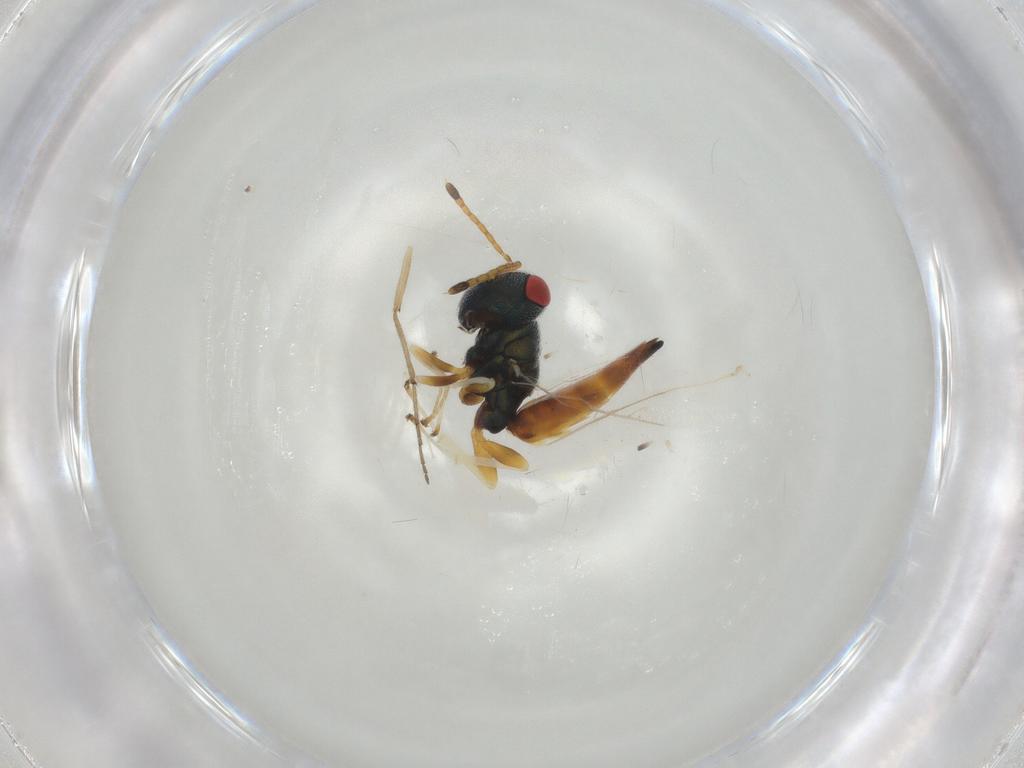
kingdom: Animalia
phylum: Arthropoda
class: Insecta
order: Hymenoptera
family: Pteromalidae
